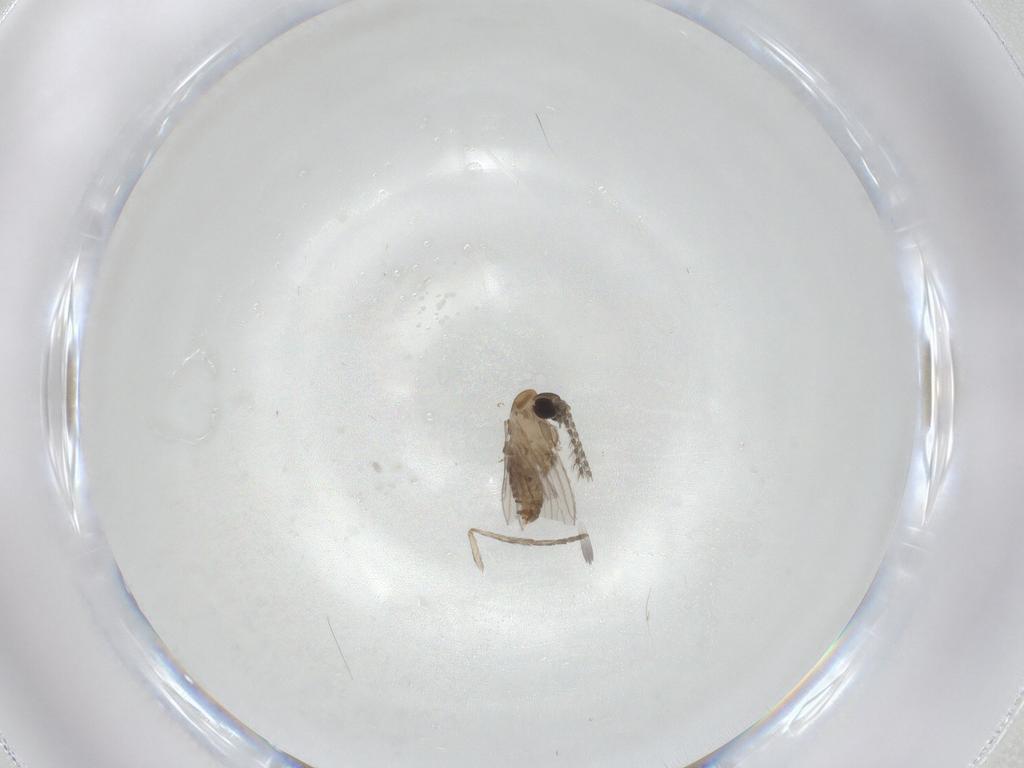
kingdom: Animalia
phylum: Arthropoda
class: Insecta
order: Diptera
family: Psychodidae
